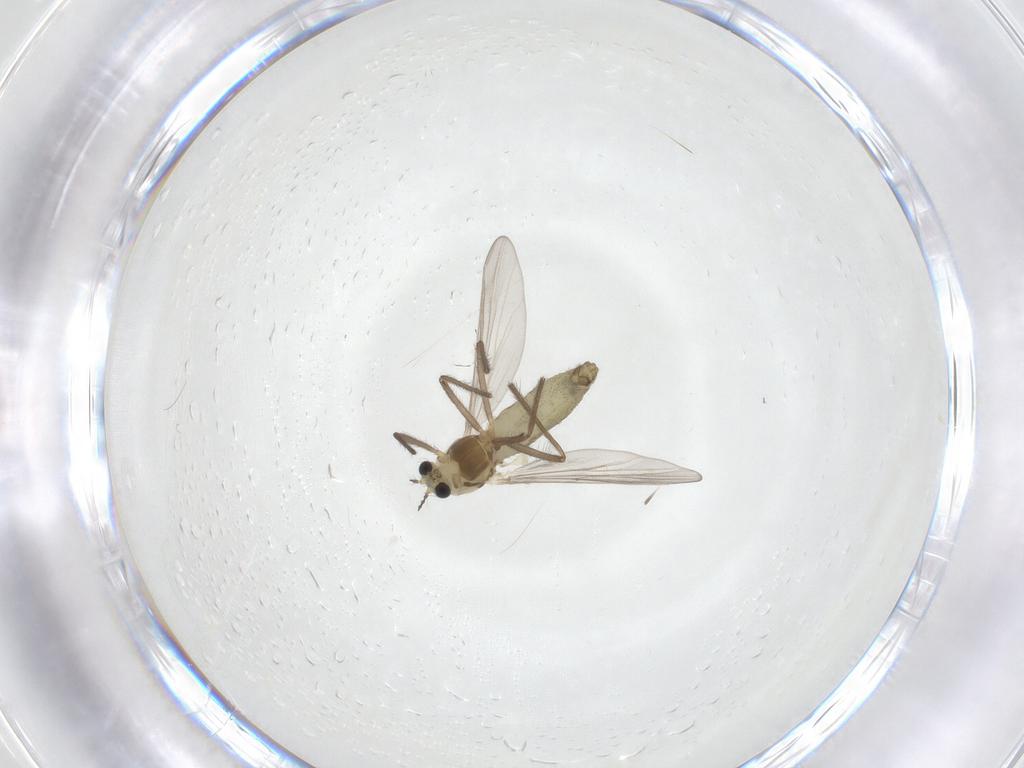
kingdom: Animalia
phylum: Arthropoda
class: Insecta
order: Diptera
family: Chironomidae
